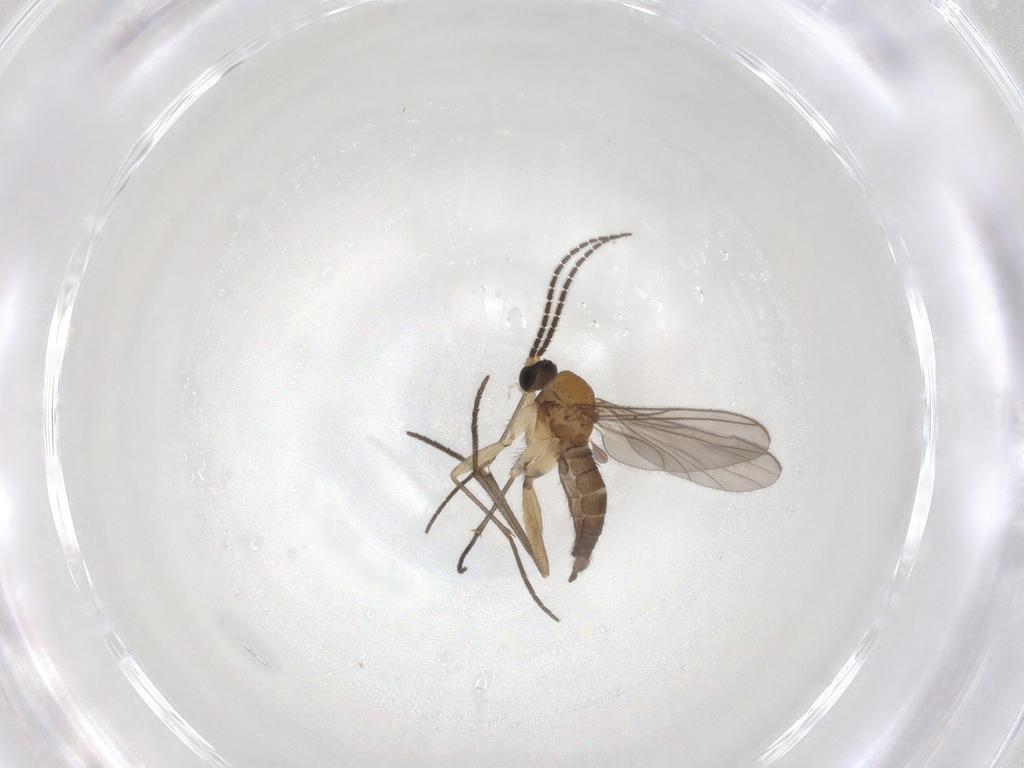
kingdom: Animalia
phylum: Arthropoda
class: Insecta
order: Diptera
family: Sciaridae
